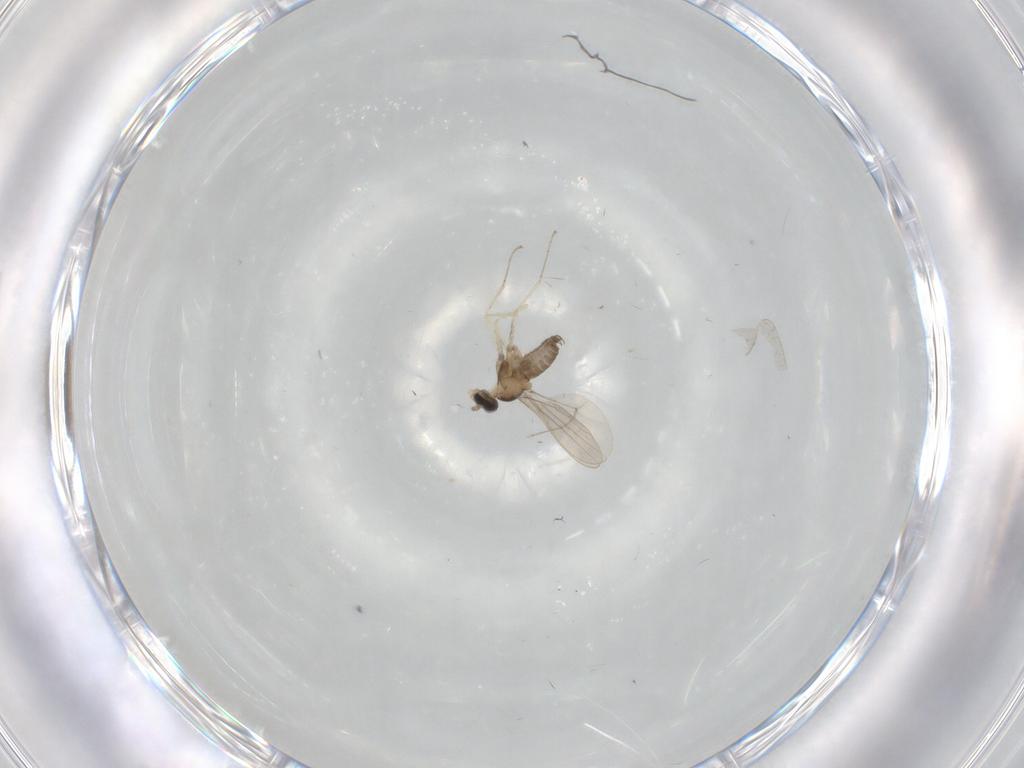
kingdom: Animalia
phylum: Arthropoda
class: Insecta
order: Diptera
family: Cecidomyiidae
